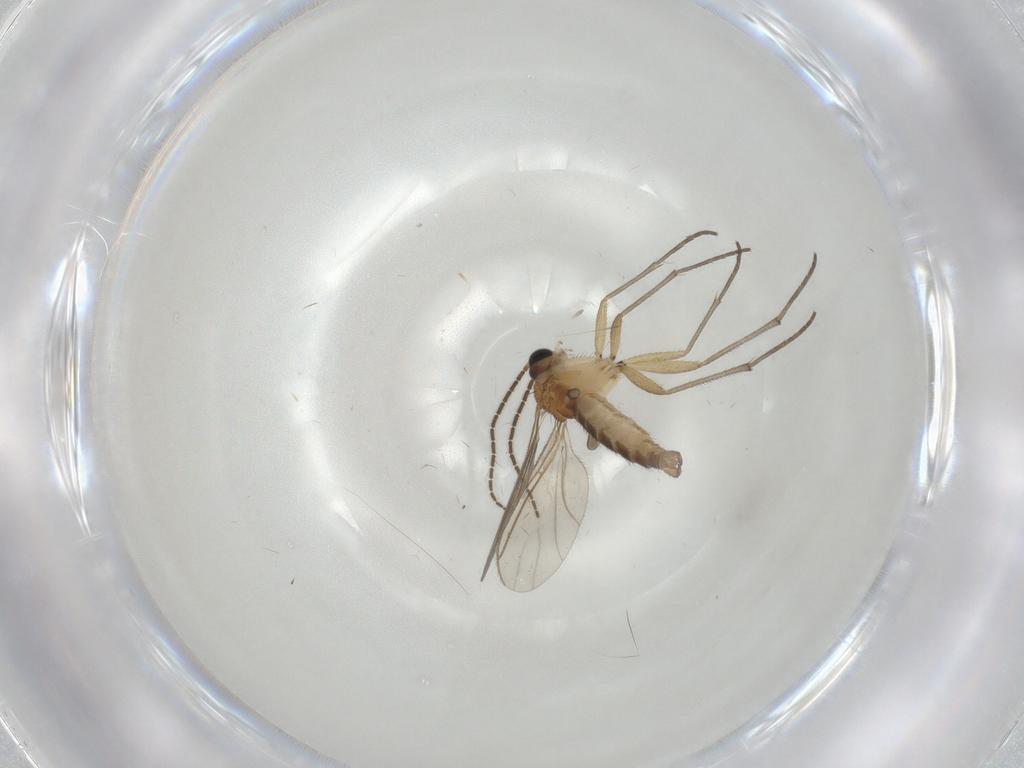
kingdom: Animalia
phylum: Arthropoda
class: Insecta
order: Diptera
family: Sciaridae
